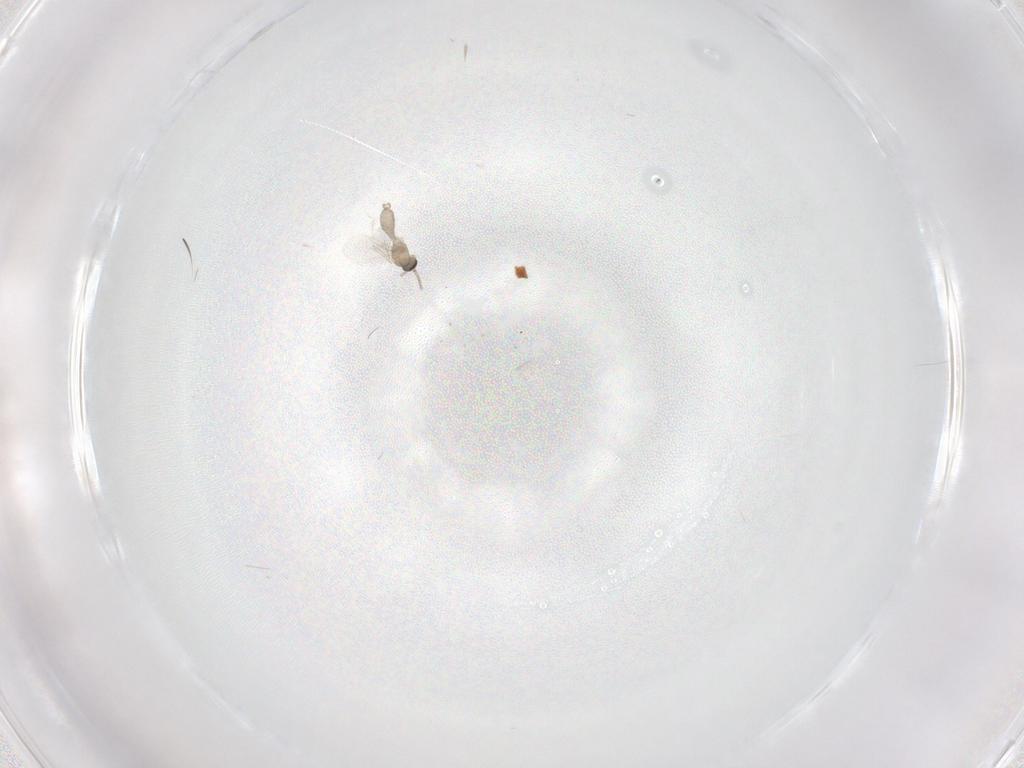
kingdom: Animalia
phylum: Arthropoda
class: Insecta
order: Diptera
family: Cecidomyiidae
